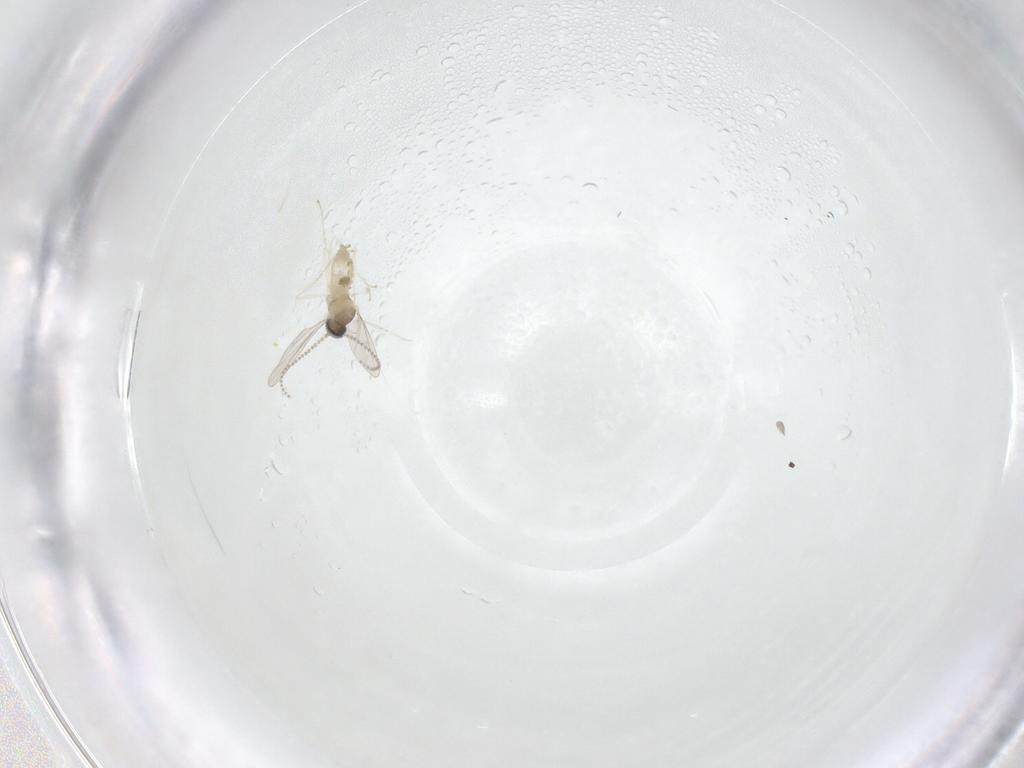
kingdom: Animalia
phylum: Arthropoda
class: Insecta
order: Diptera
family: Cecidomyiidae
